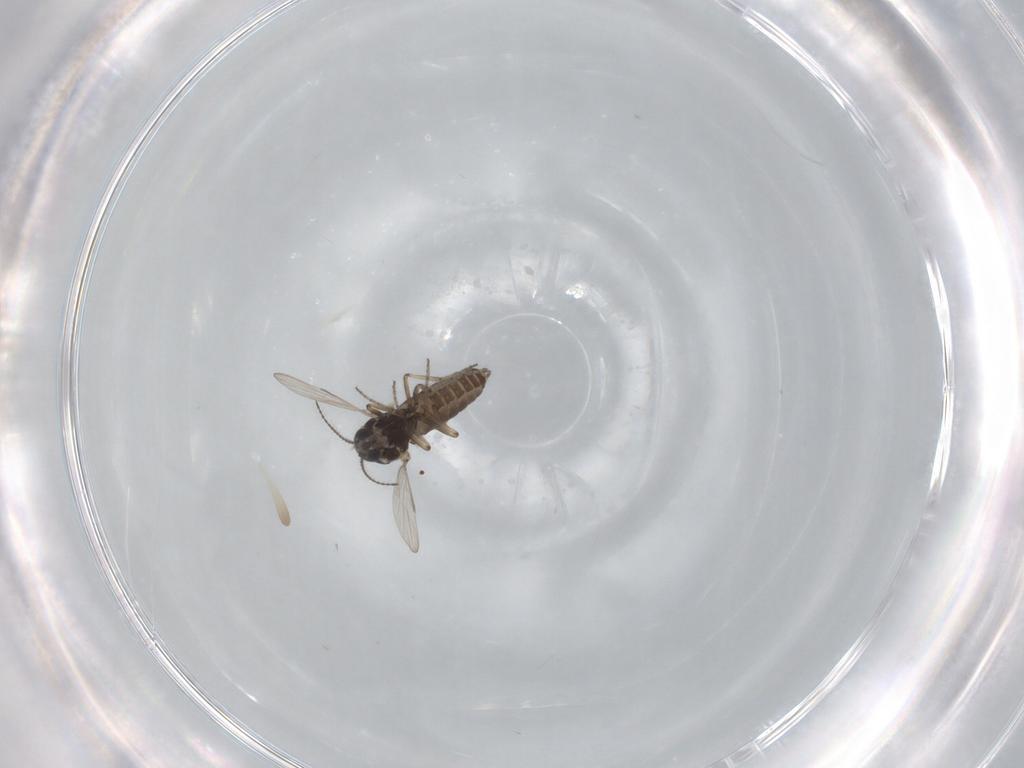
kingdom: Animalia
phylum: Arthropoda
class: Insecta
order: Diptera
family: Ceratopogonidae
